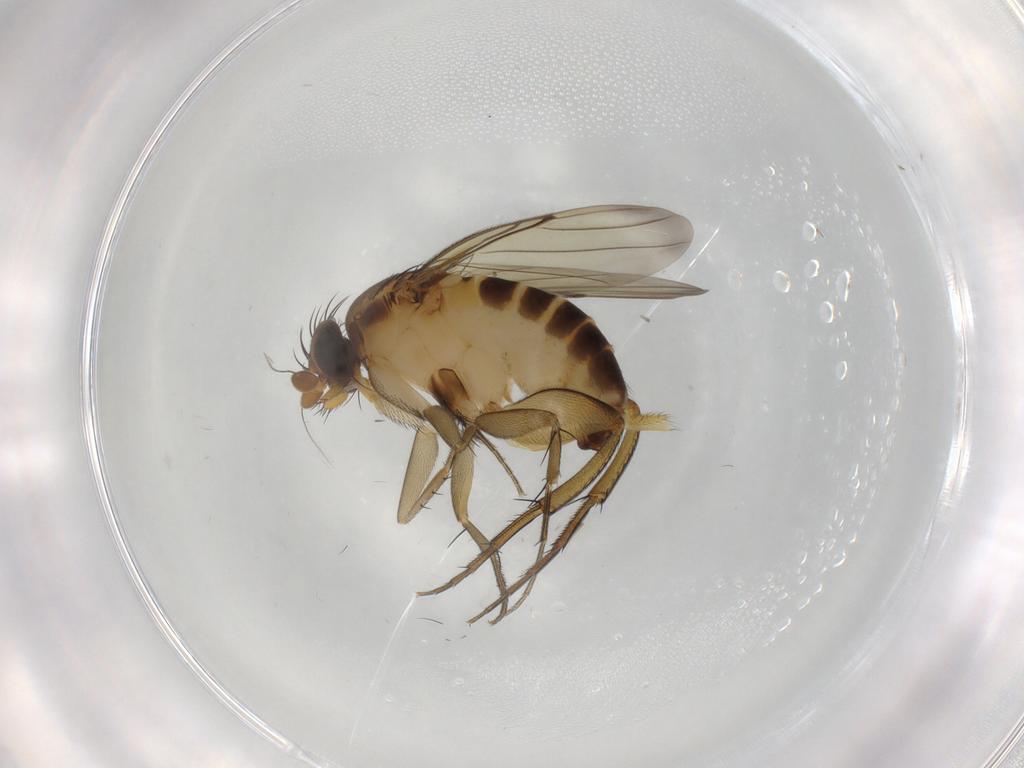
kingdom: Animalia
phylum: Arthropoda
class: Insecta
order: Diptera
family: Phoridae
